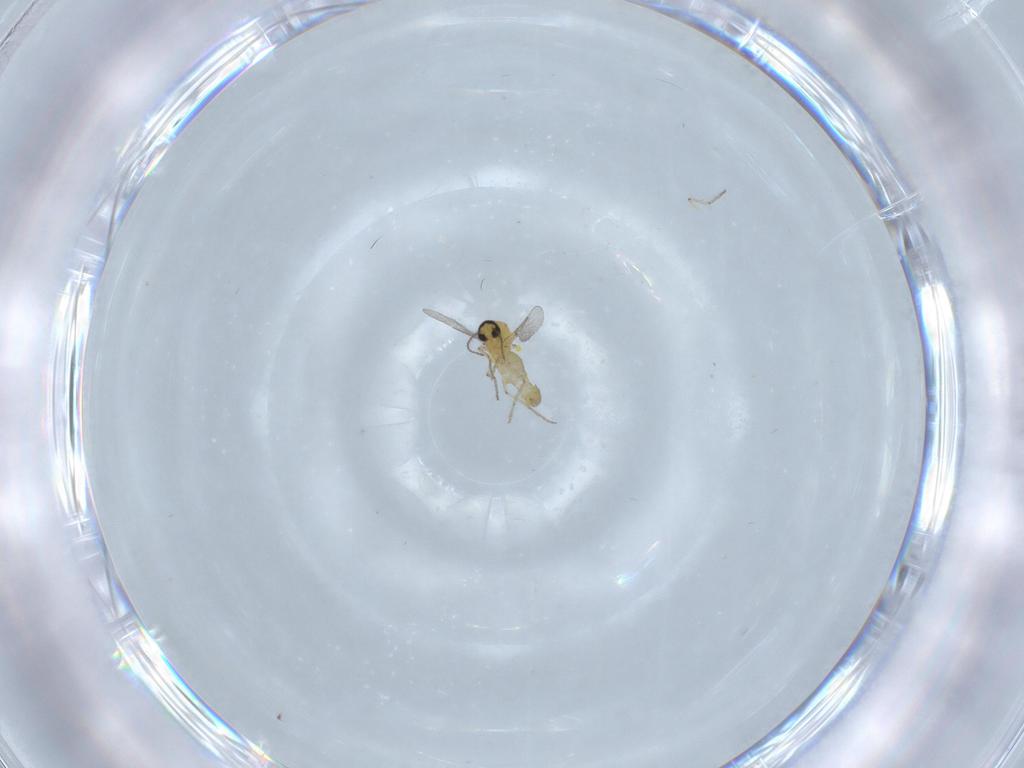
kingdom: Animalia
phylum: Arthropoda
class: Insecta
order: Diptera
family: Ceratopogonidae
